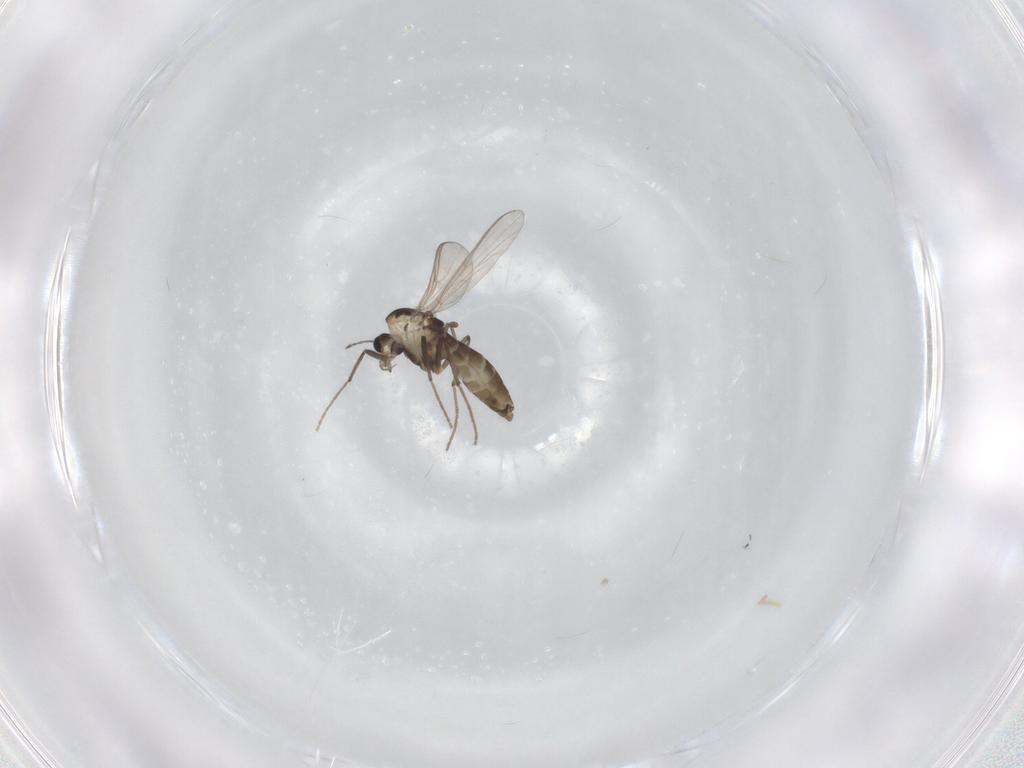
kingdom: Animalia
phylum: Arthropoda
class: Insecta
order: Diptera
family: Chironomidae
